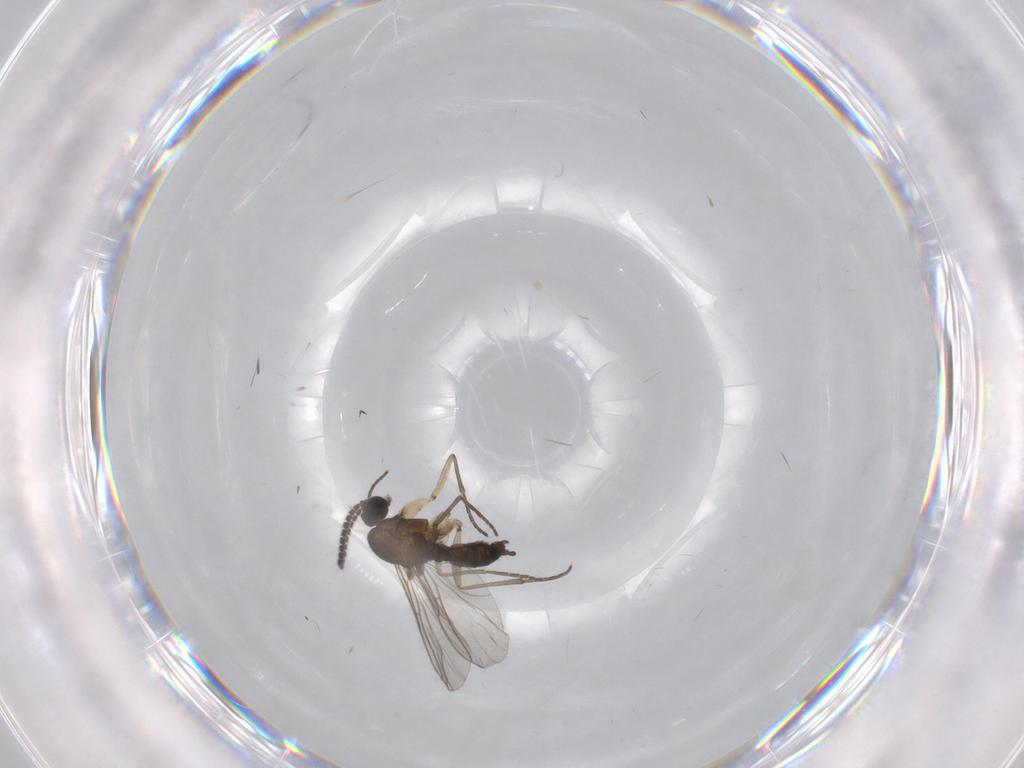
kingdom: Animalia
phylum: Arthropoda
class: Insecta
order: Diptera
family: Sciaridae
